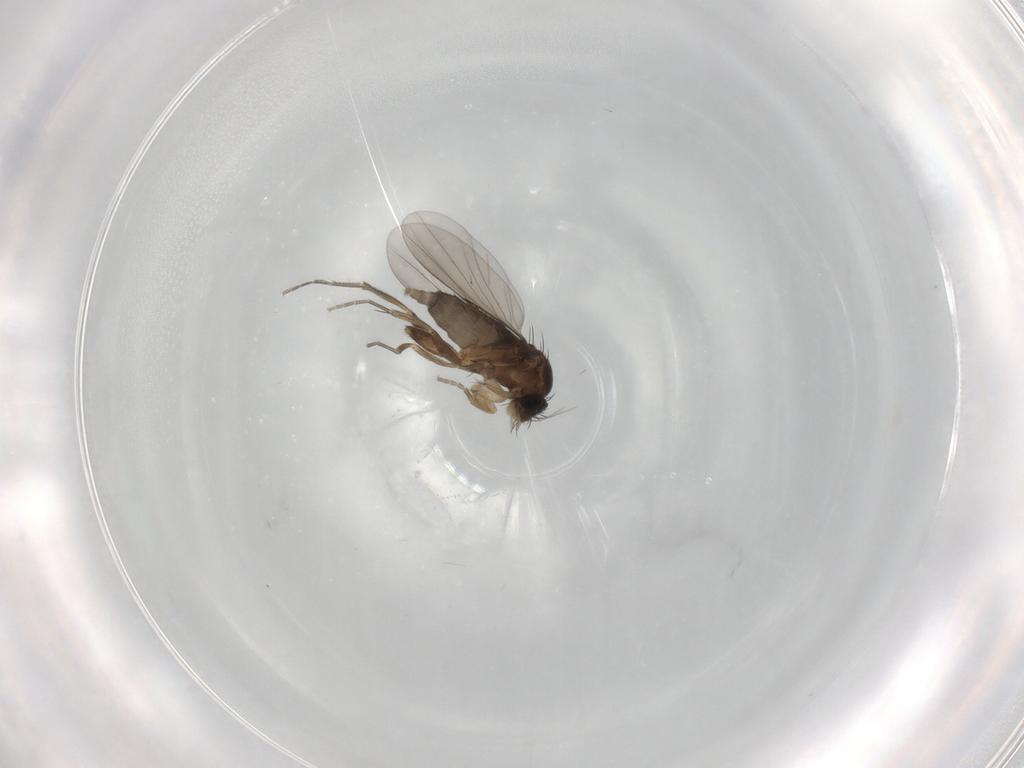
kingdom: Animalia
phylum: Arthropoda
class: Insecta
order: Diptera
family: Phoridae
